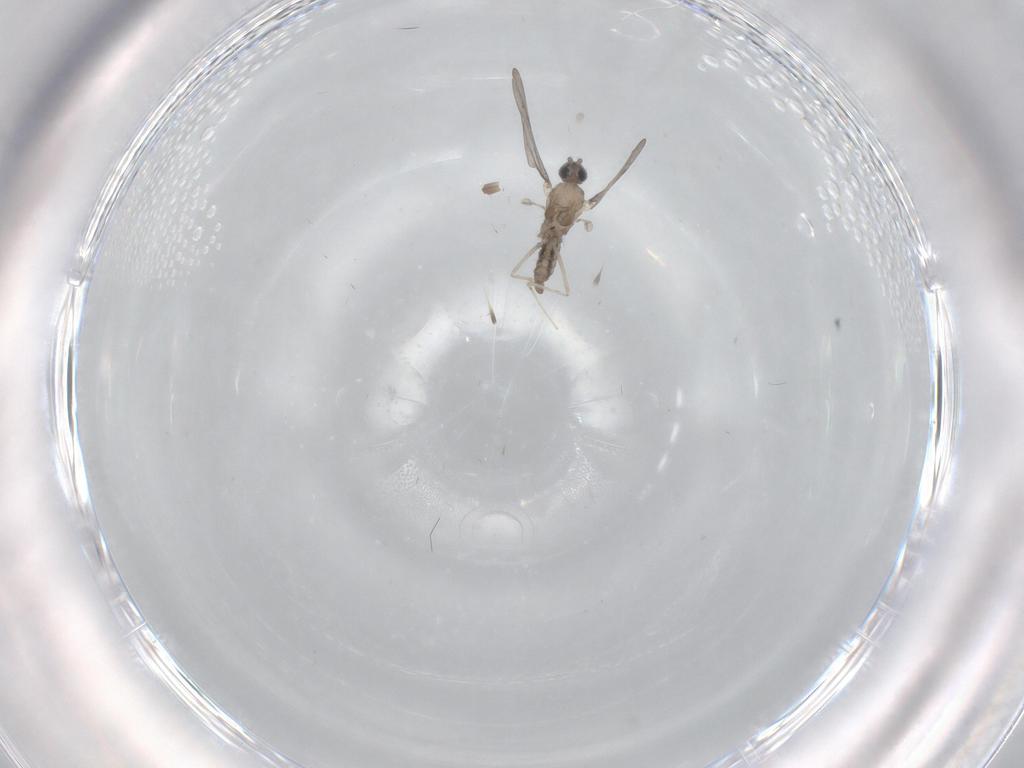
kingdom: Animalia
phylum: Arthropoda
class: Insecta
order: Diptera
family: Cecidomyiidae
